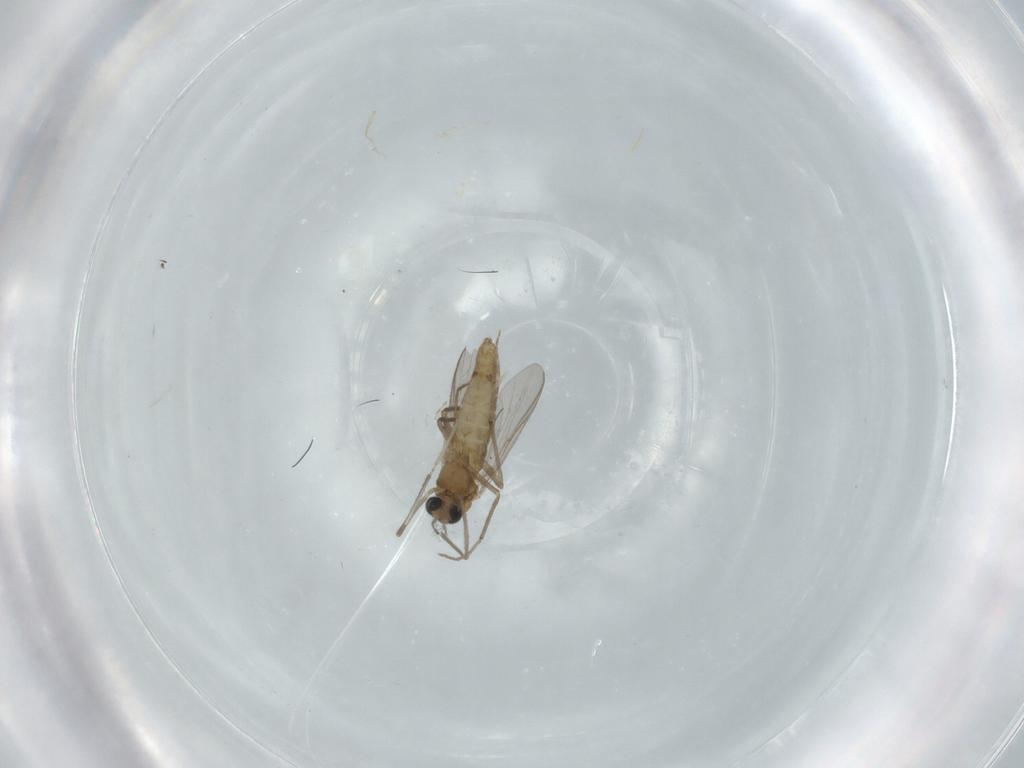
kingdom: Animalia
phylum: Arthropoda
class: Insecta
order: Diptera
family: Chironomidae
